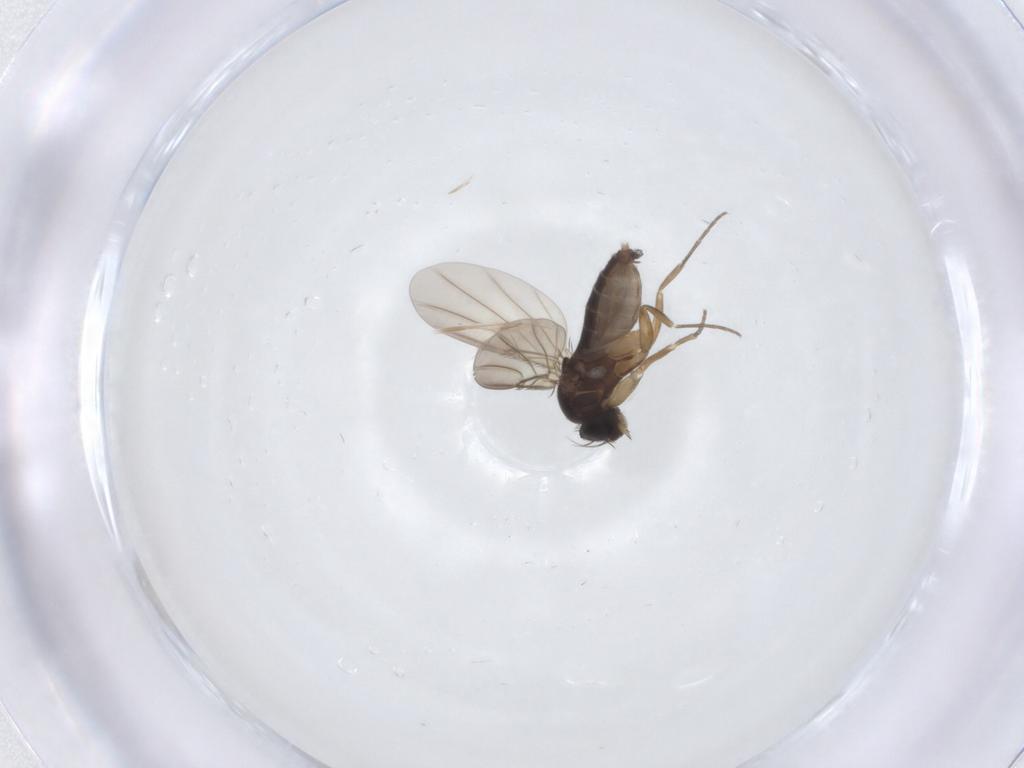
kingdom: Animalia
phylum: Arthropoda
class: Insecta
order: Diptera
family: Phoridae
